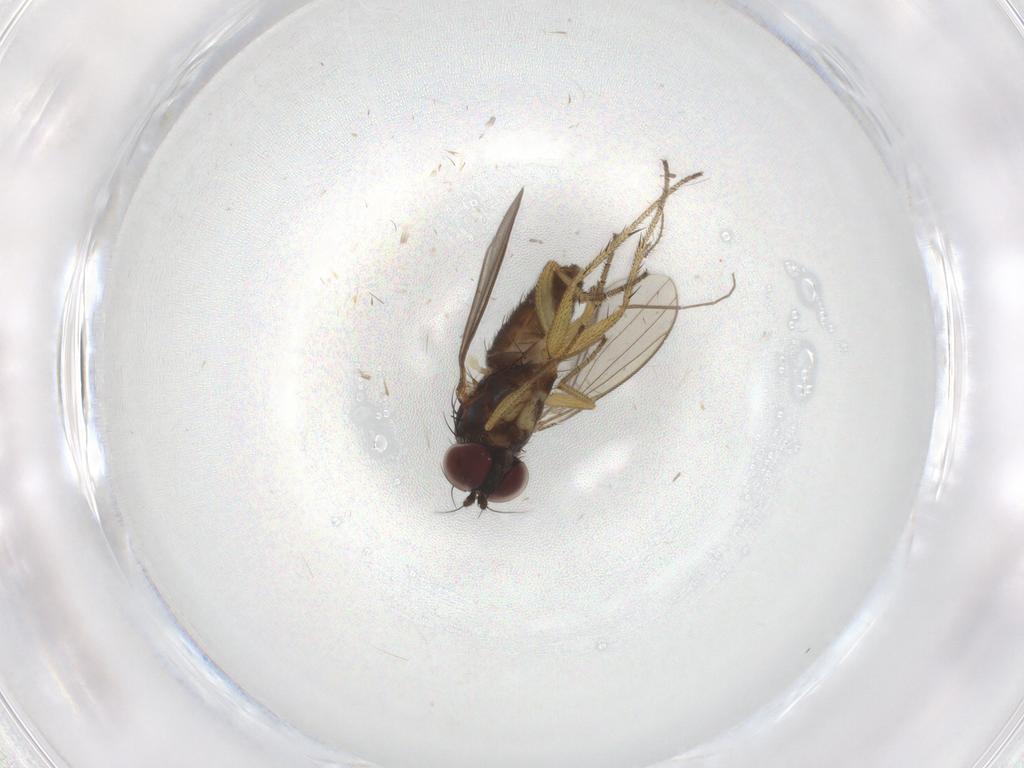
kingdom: Animalia
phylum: Arthropoda
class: Insecta
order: Diptera
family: Ceratopogonidae
